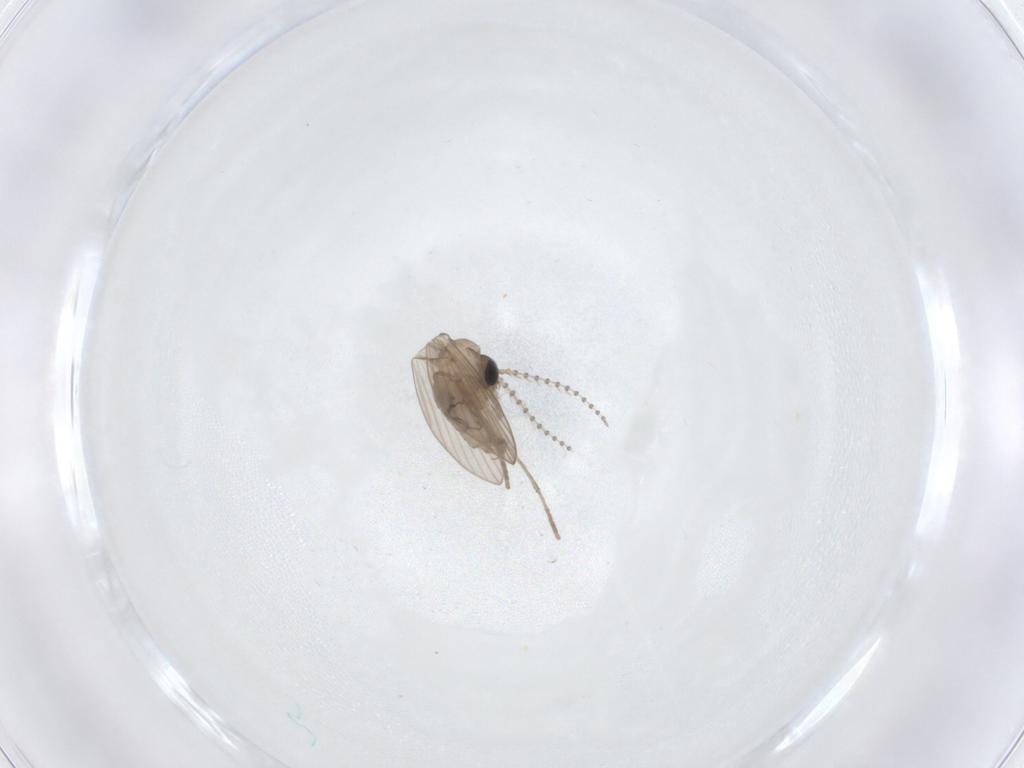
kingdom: Animalia
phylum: Arthropoda
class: Insecta
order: Diptera
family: Psychodidae
